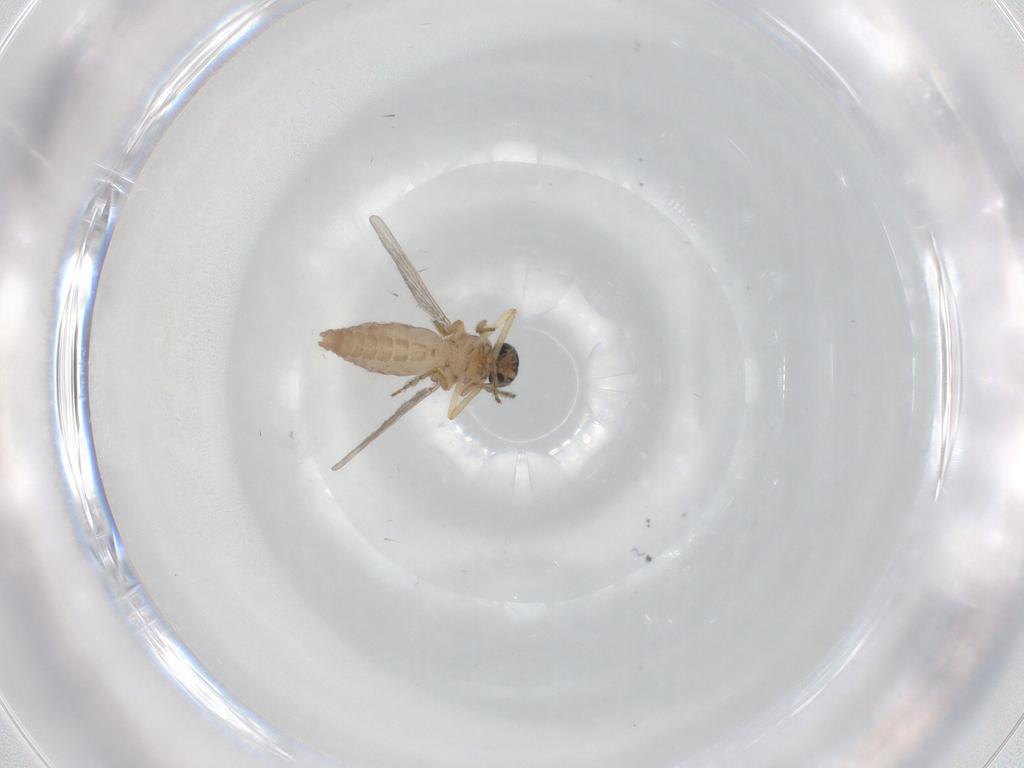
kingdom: Animalia
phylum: Arthropoda
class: Insecta
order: Diptera
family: Ceratopogonidae
